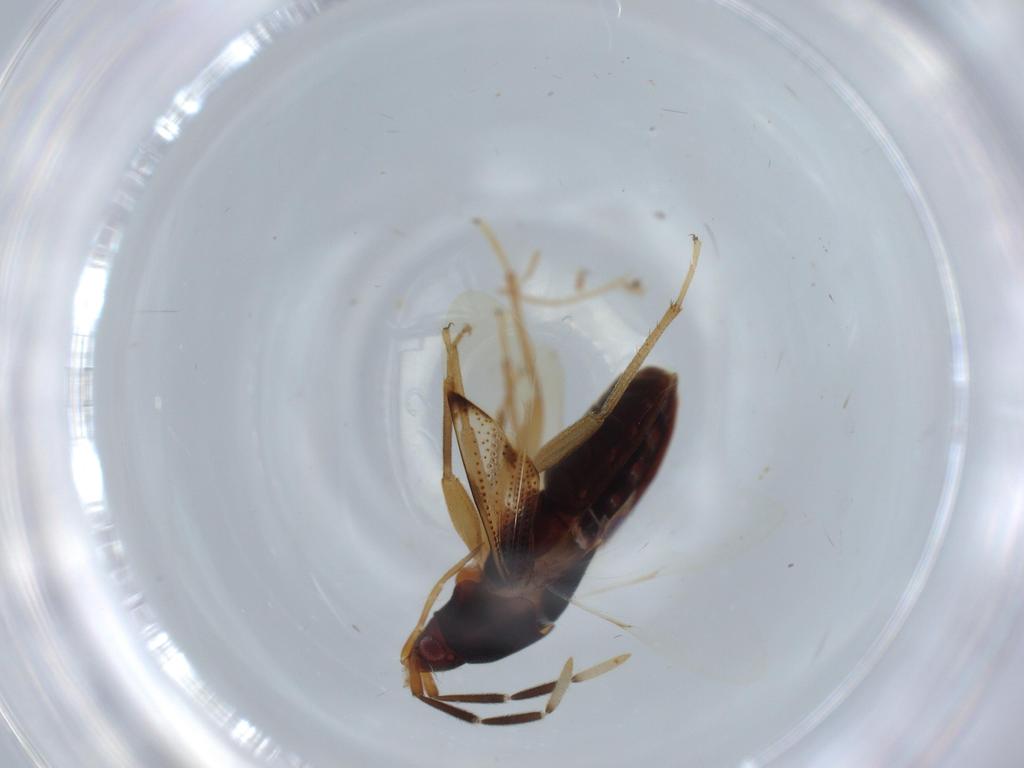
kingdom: Animalia
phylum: Arthropoda
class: Insecta
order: Hemiptera
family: Rhyparochromidae
